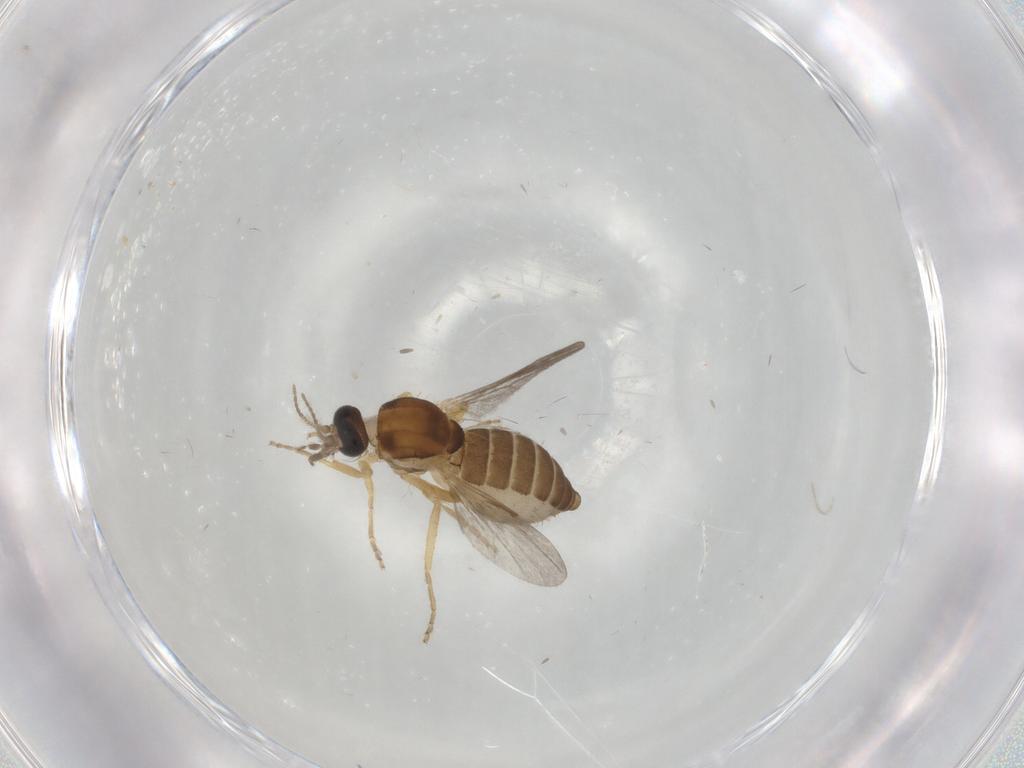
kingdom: Animalia
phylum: Arthropoda
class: Insecta
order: Diptera
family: Ceratopogonidae
